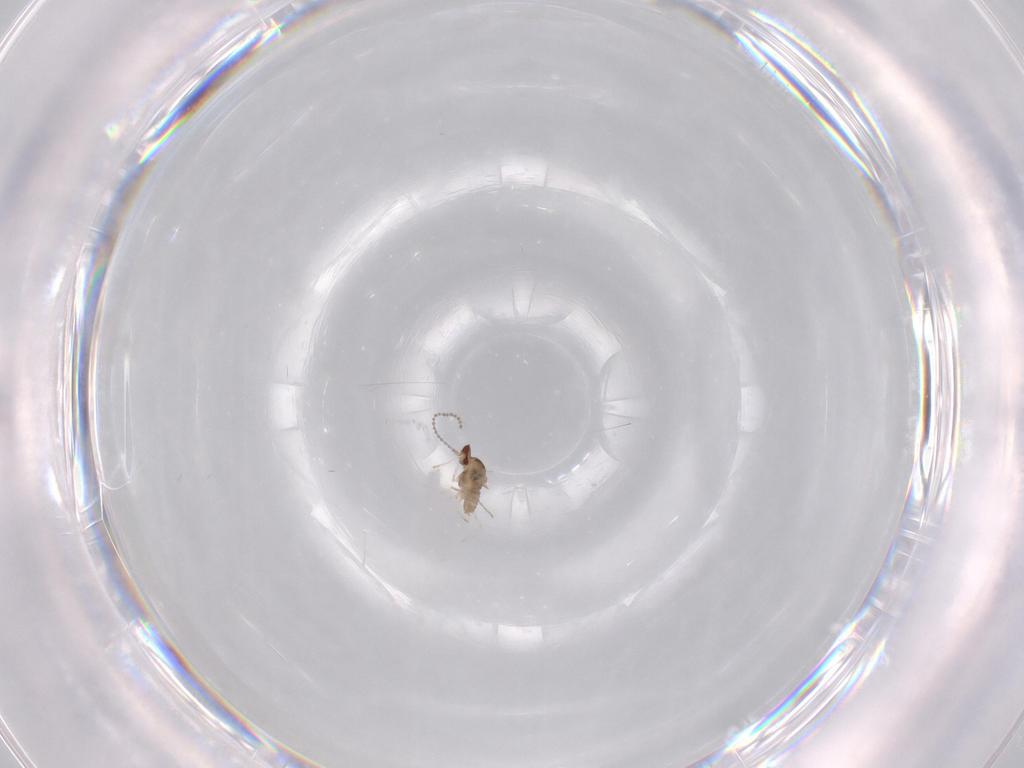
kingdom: Animalia
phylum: Arthropoda
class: Insecta
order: Diptera
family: Cecidomyiidae
